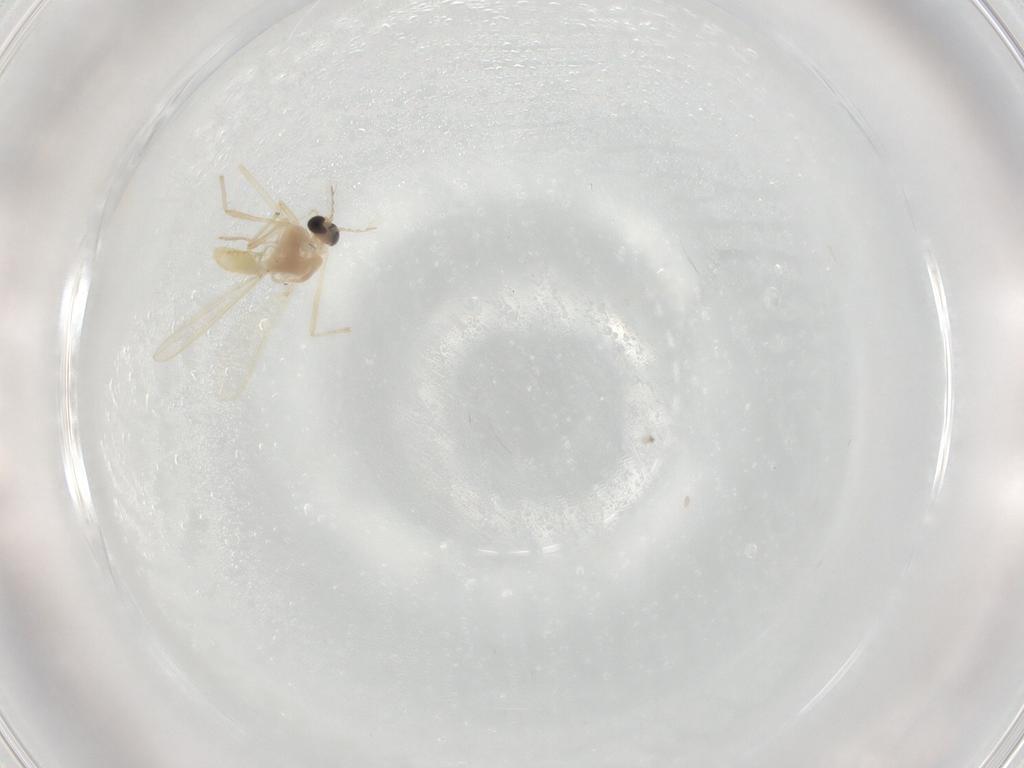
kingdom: Animalia
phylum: Arthropoda
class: Insecta
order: Diptera
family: Chironomidae
